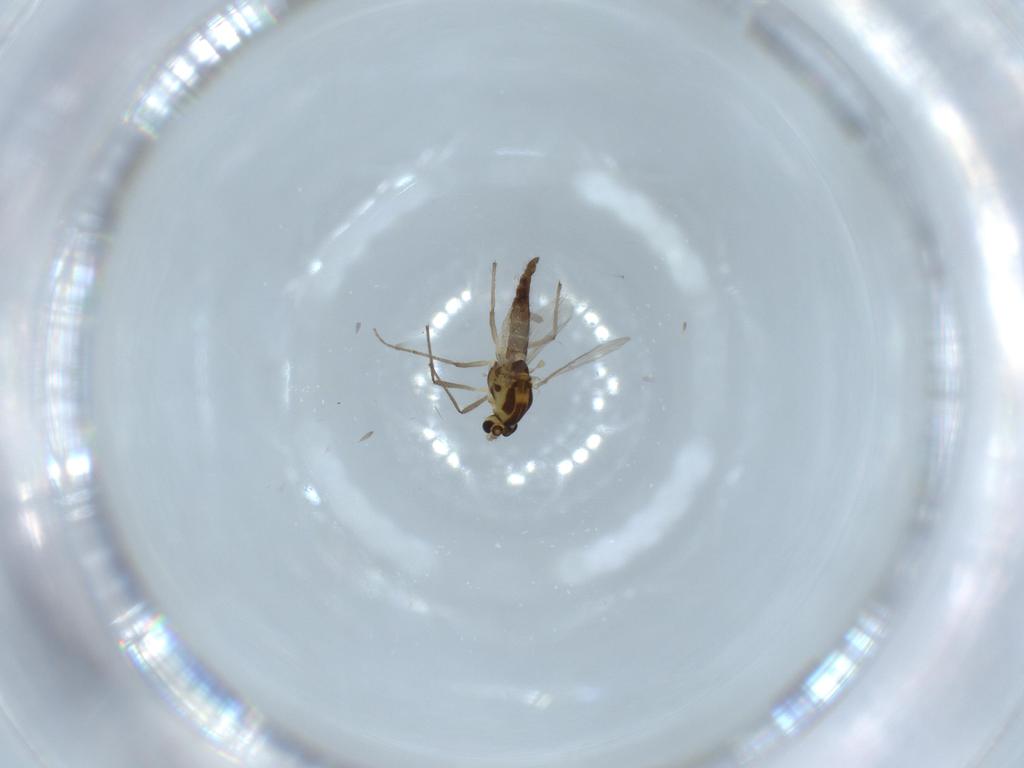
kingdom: Animalia
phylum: Arthropoda
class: Insecta
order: Diptera
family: Chironomidae
